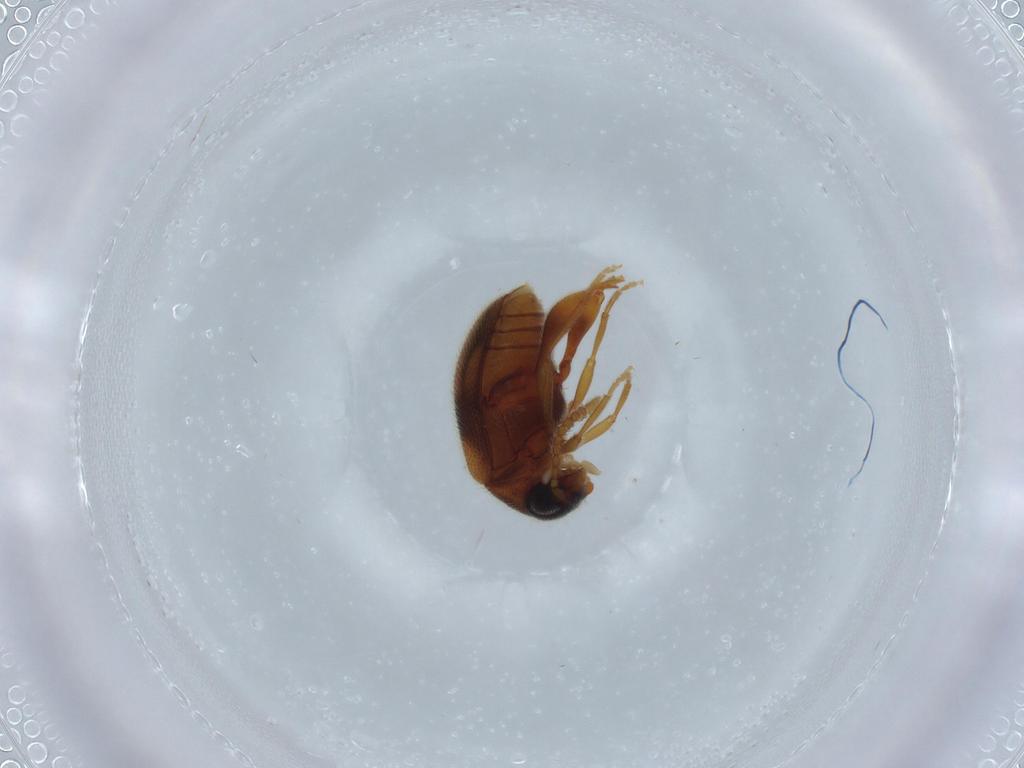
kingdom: Animalia
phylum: Arthropoda
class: Insecta
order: Coleoptera
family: Aderidae
